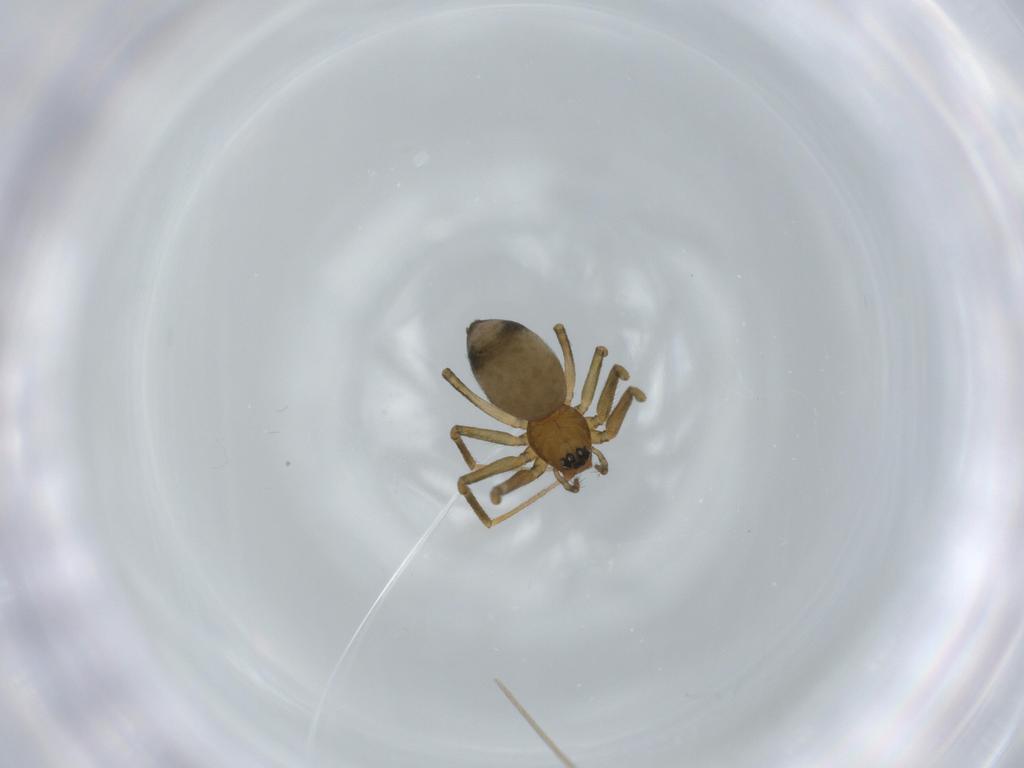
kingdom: Animalia
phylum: Arthropoda
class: Arachnida
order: Araneae
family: Linyphiidae
